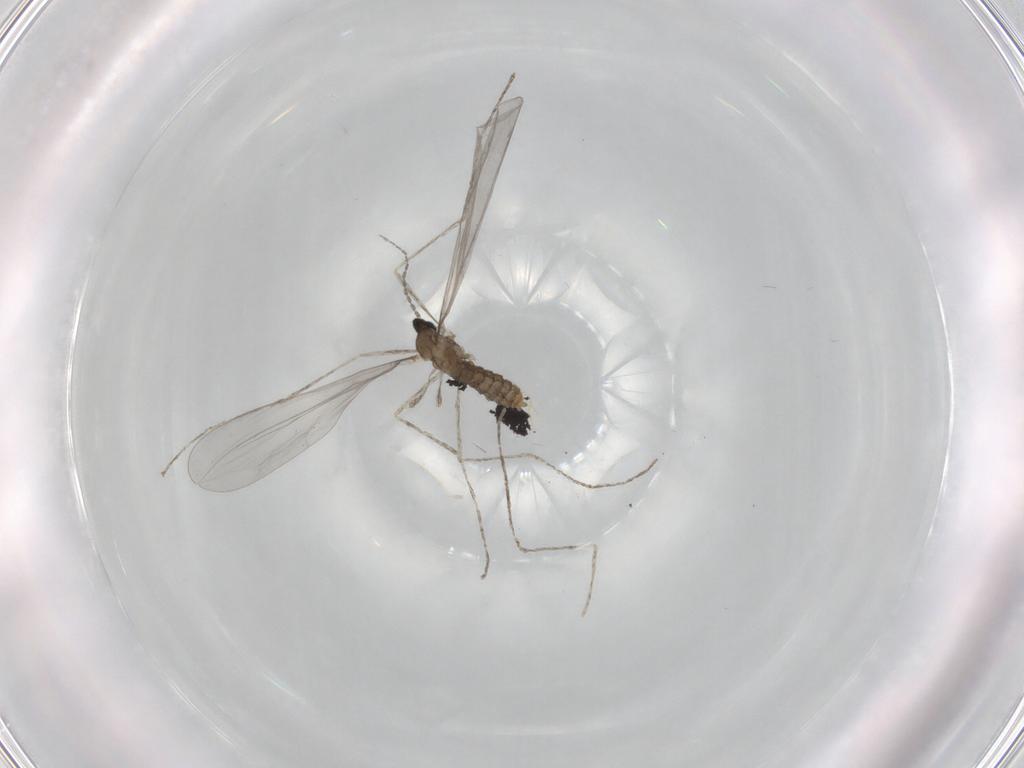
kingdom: Animalia
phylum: Arthropoda
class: Insecta
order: Diptera
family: Cecidomyiidae
